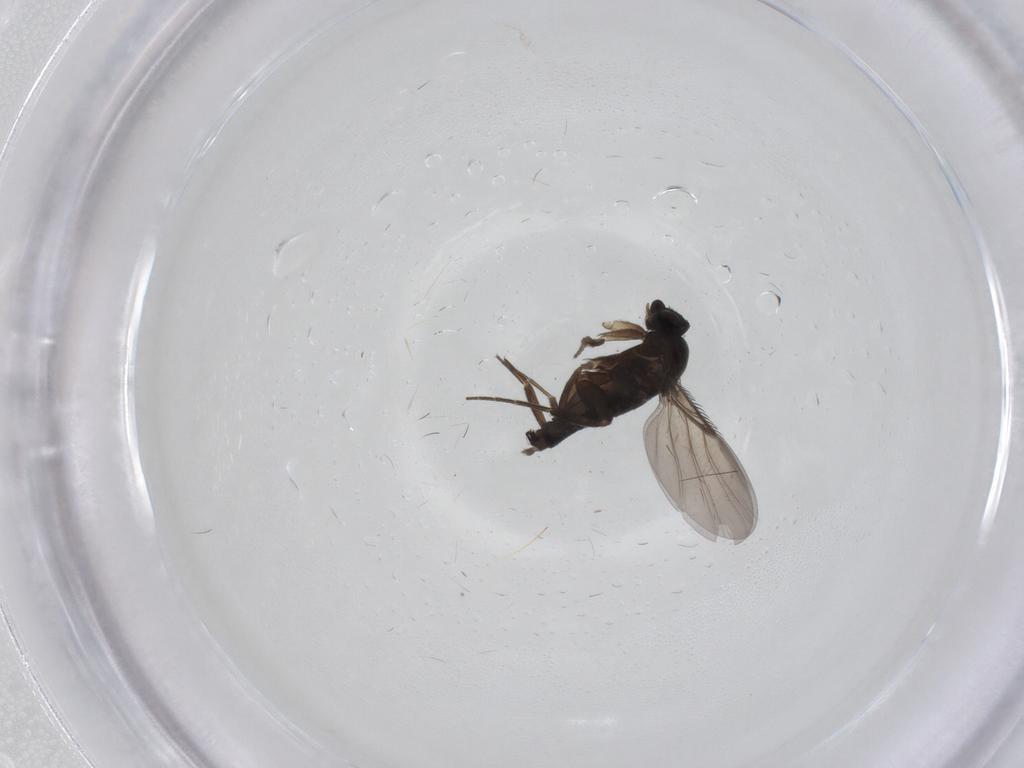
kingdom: Animalia
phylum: Arthropoda
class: Insecta
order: Diptera
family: Phoridae
